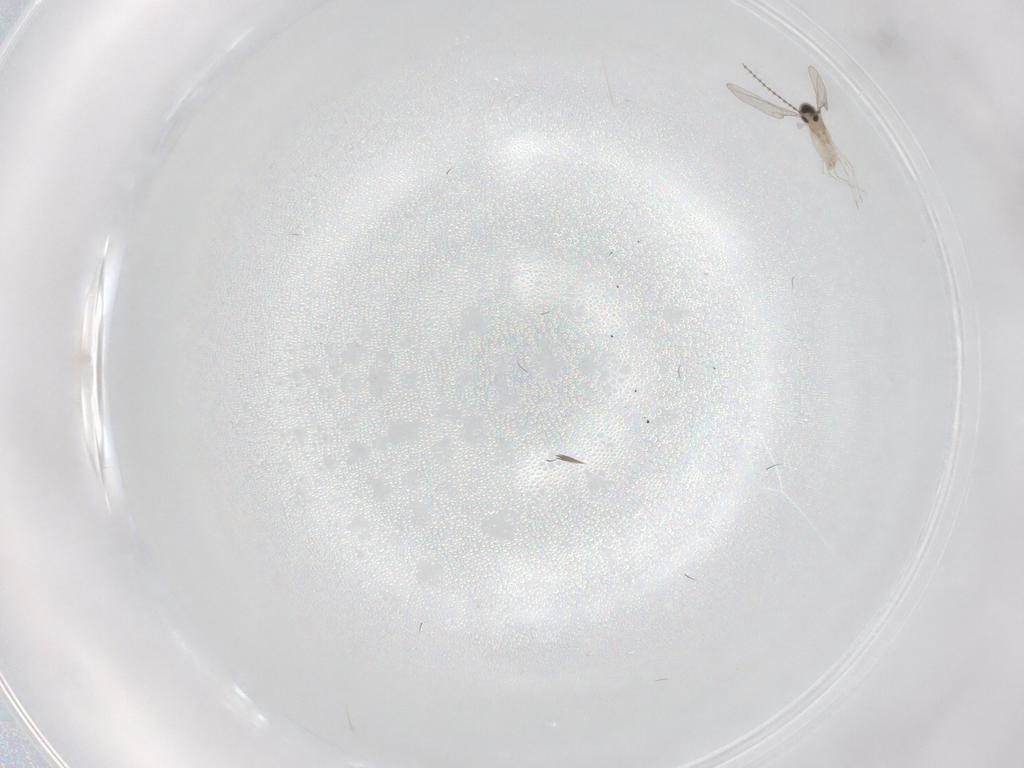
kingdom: Animalia
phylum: Arthropoda
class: Insecta
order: Diptera
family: Cecidomyiidae
